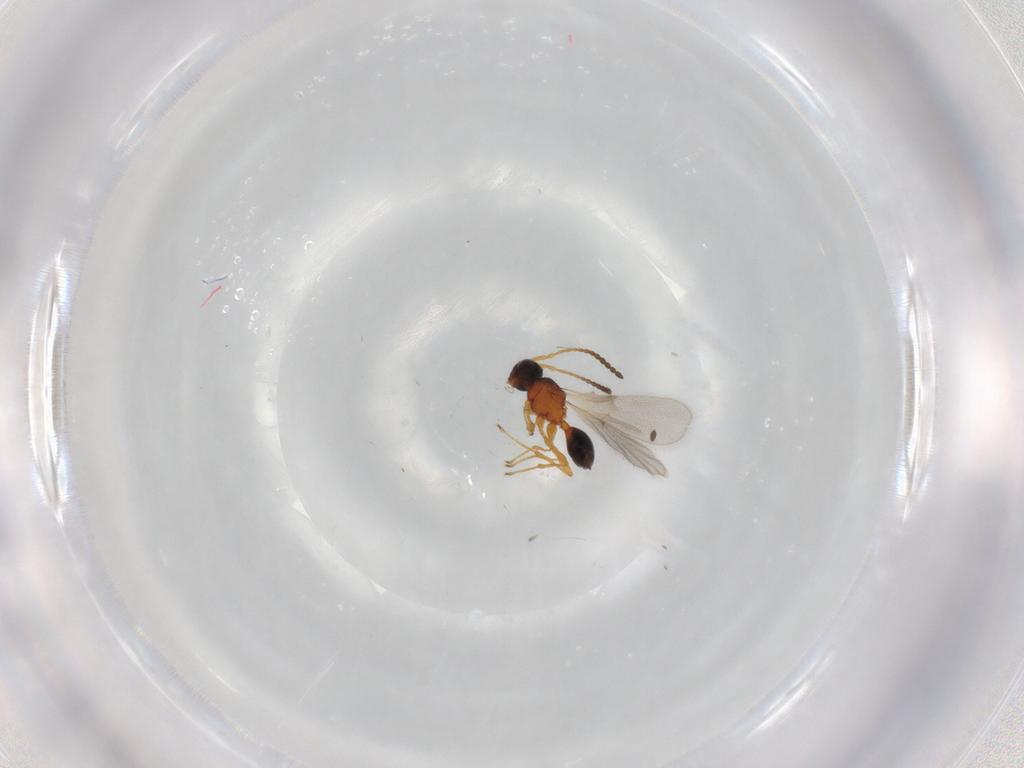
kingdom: Animalia
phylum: Arthropoda
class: Insecta
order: Hymenoptera
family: Diapriidae
